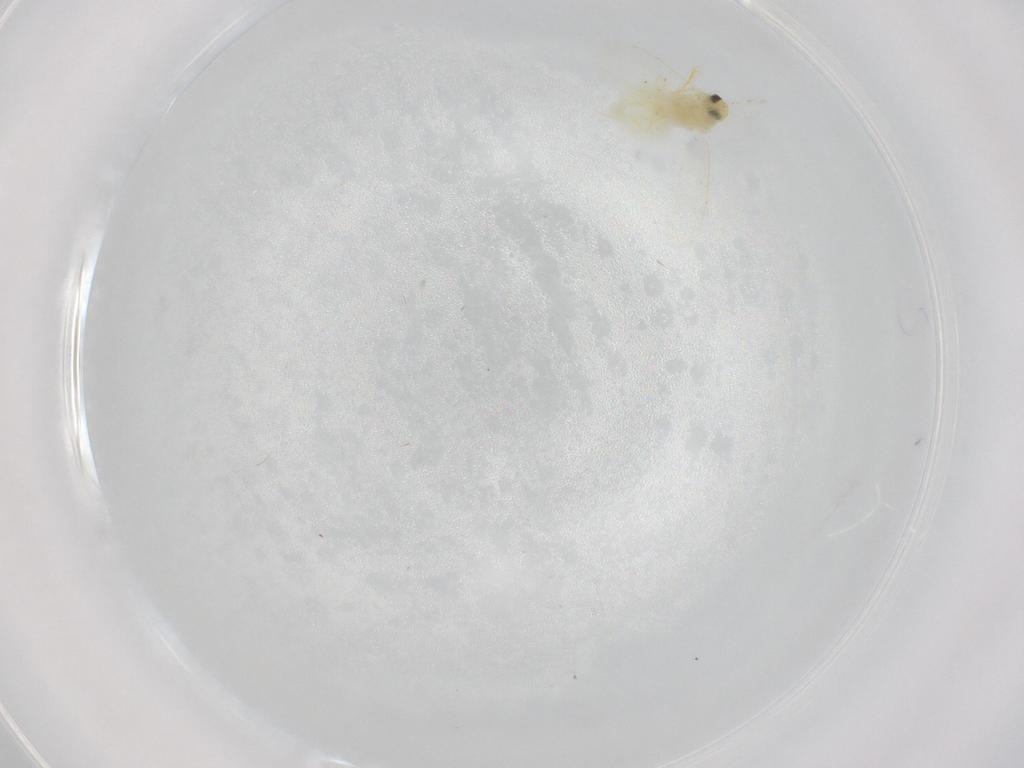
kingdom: Animalia
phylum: Arthropoda
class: Insecta
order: Hemiptera
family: Aleyrodidae
